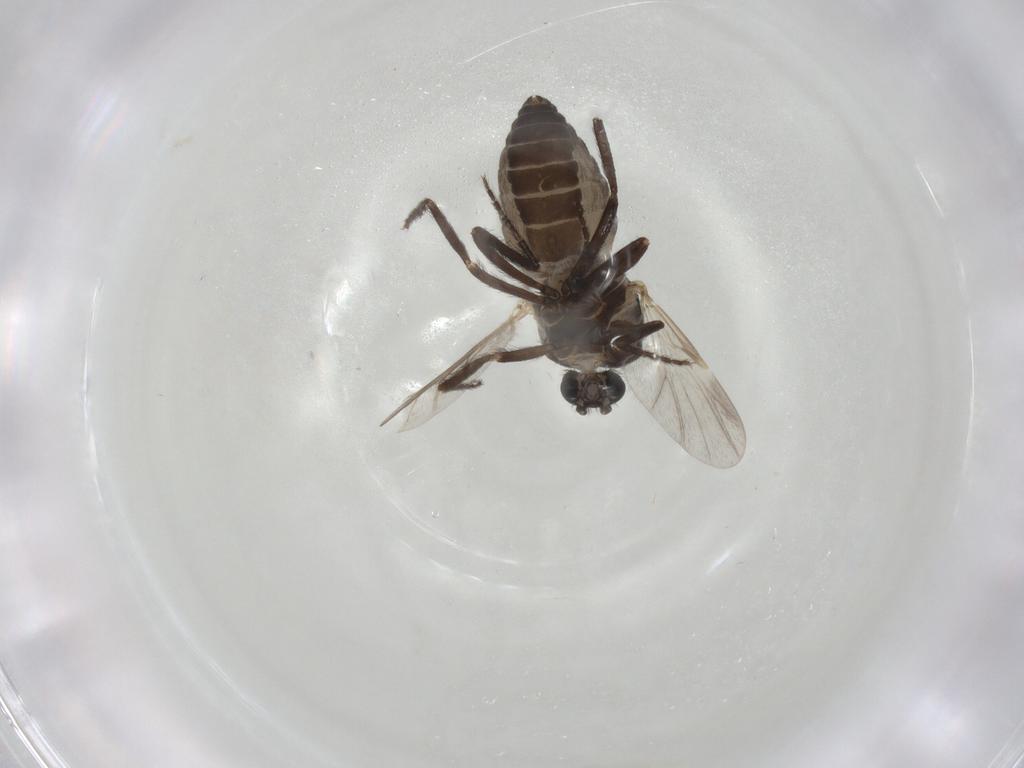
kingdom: Animalia
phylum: Arthropoda
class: Insecta
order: Diptera
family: Ceratopogonidae
